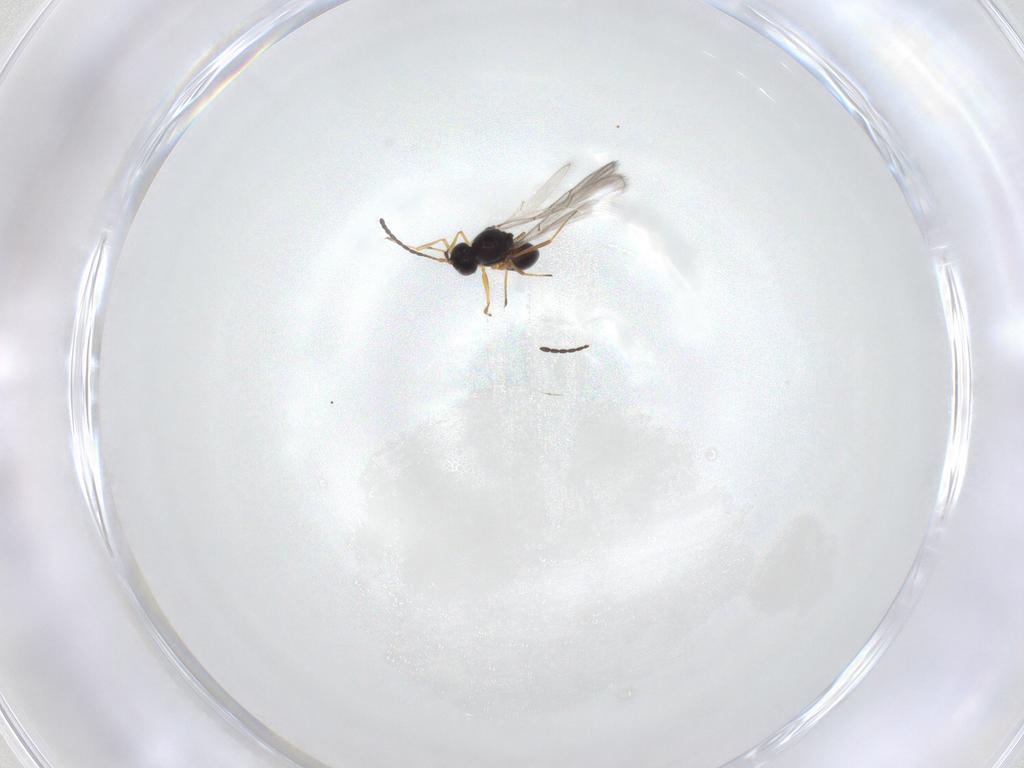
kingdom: Animalia
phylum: Arthropoda
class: Insecta
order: Hymenoptera
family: Figitidae
